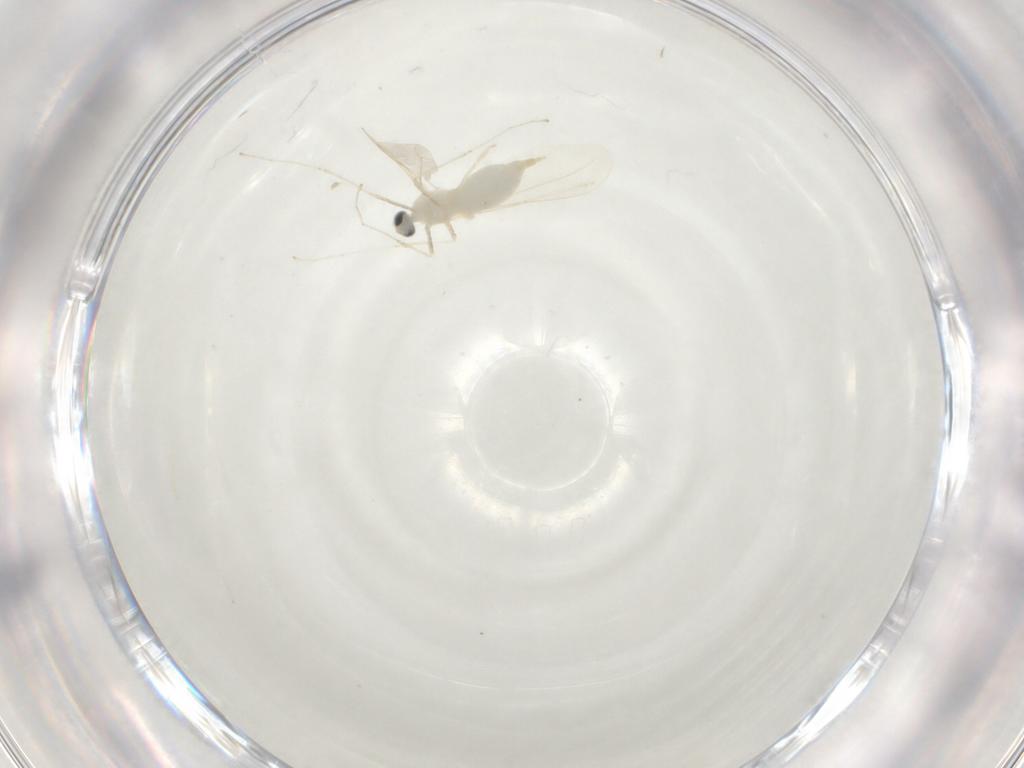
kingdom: Animalia
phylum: Arthropoda
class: Insecta
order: Diptera
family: Cecidomyiidae
